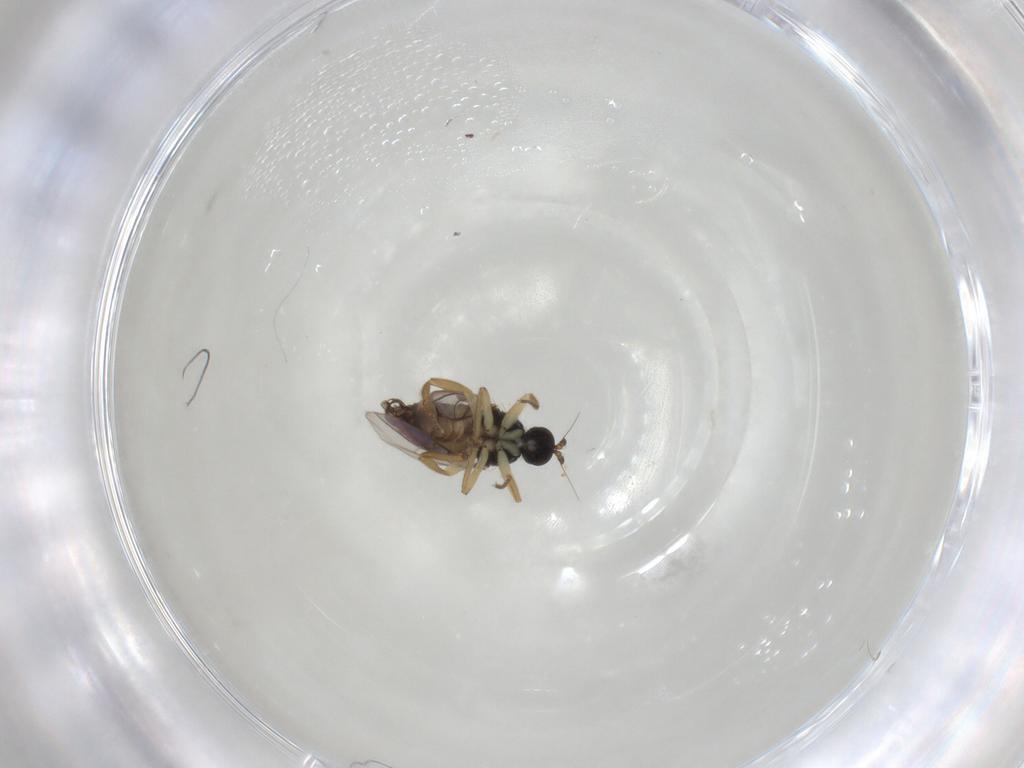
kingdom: Animalia
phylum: Arthropoda
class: Insecta
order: Diptera
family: Hybotidae
